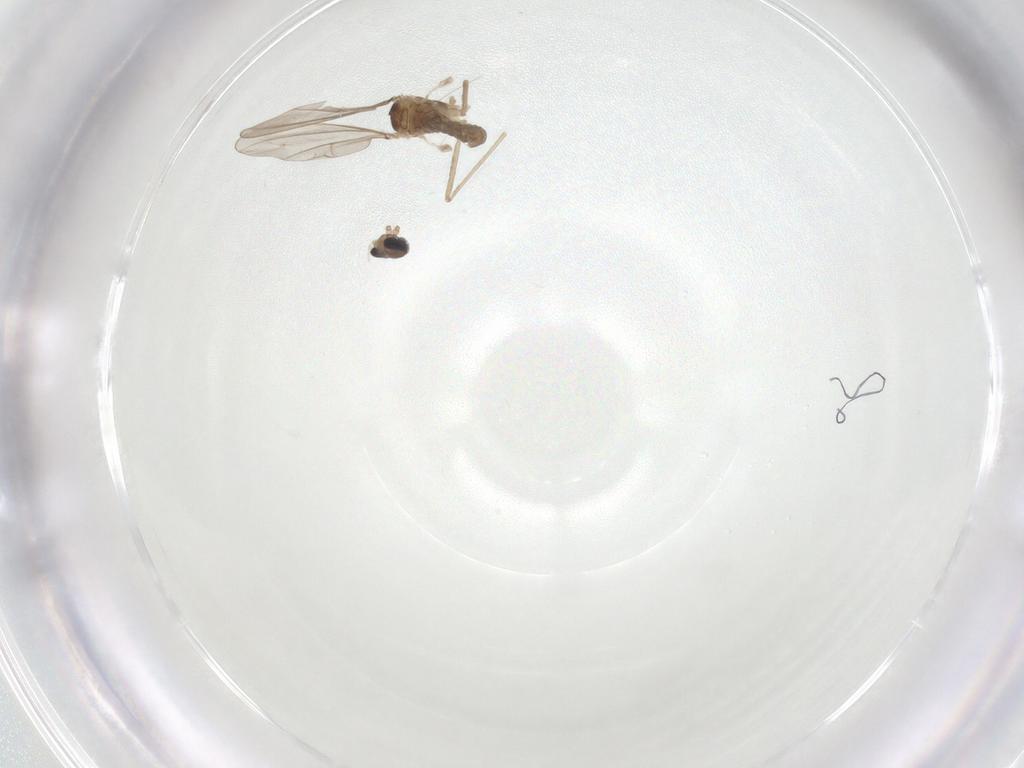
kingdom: Animalia
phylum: Arthropoda
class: Insecta
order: Diptera
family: Cecidomyiidae
